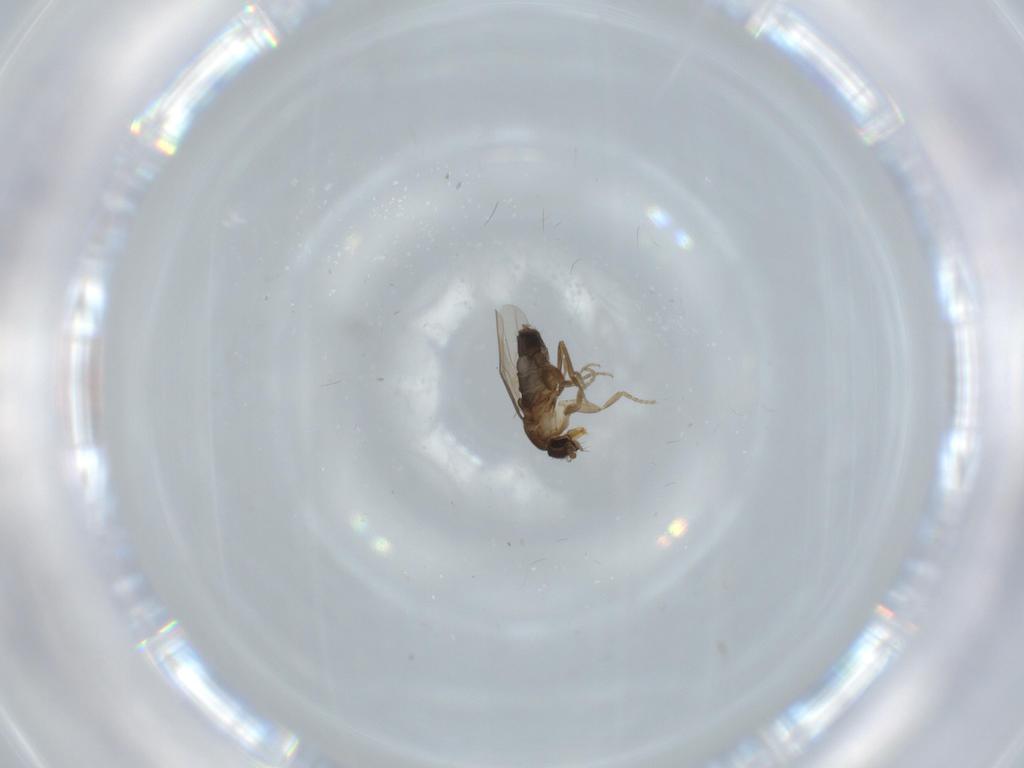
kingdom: Animalia
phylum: Arthropoda
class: Insecta
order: Diptera
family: Phoridae
